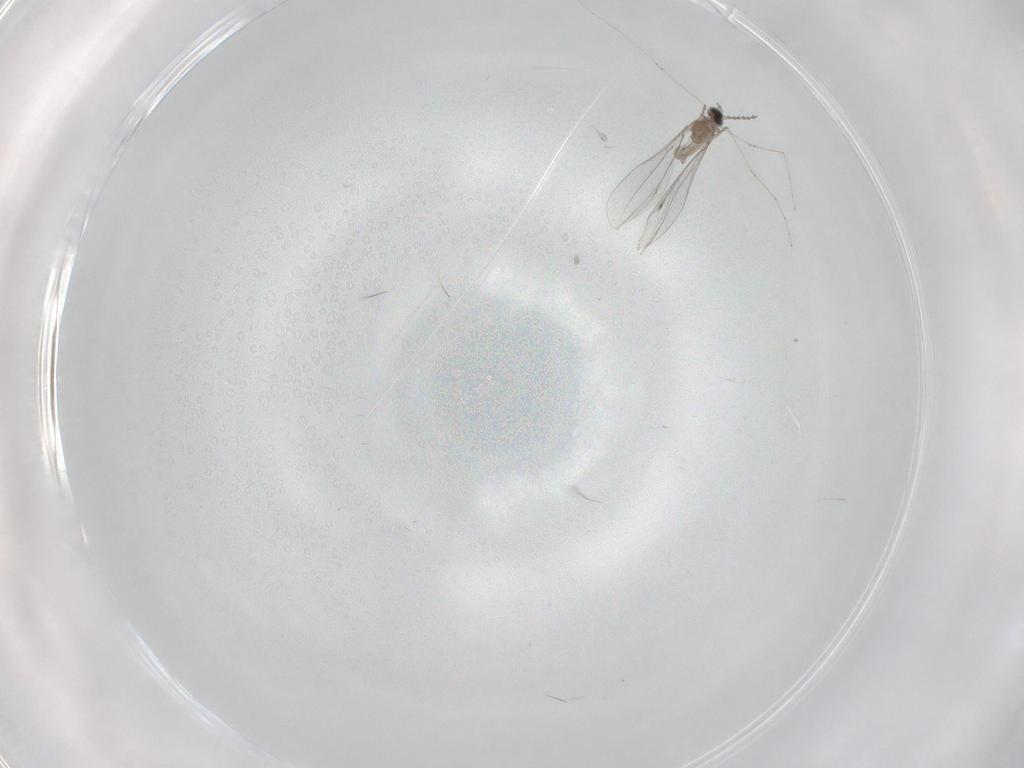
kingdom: Animalia
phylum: Arthropoda
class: Insecta
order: Diptera
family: Cecidomyiidae
